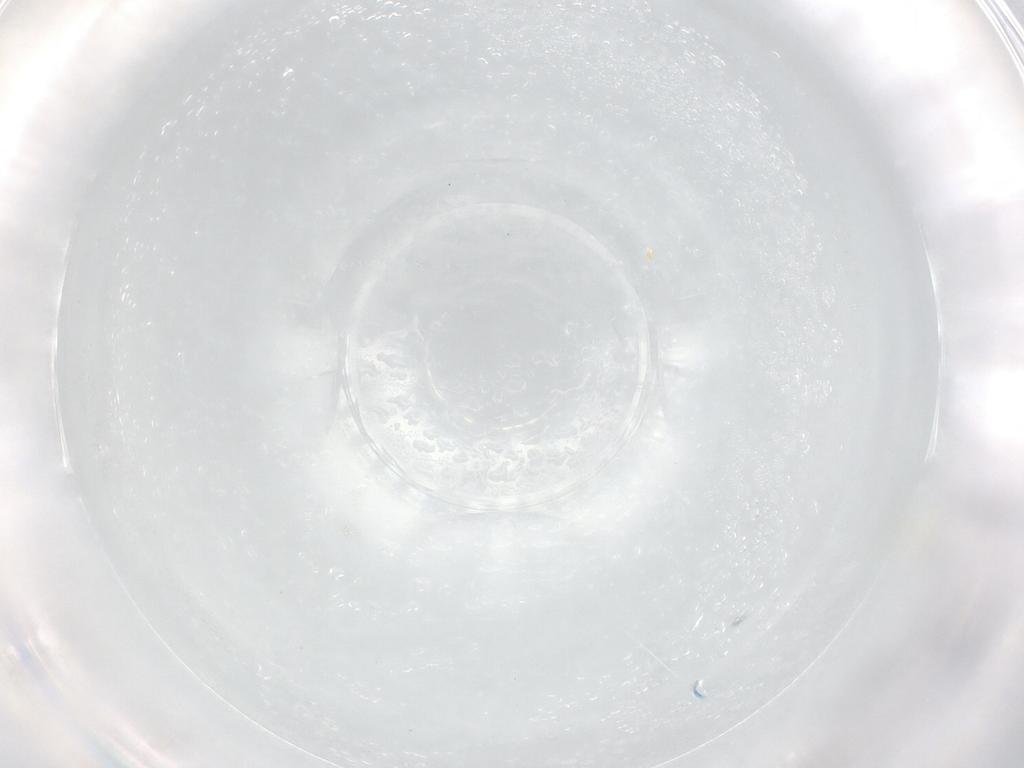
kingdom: Animalia
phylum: Arthropoda
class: Arachnida
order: Trombidiformes
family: Tetranychidae
